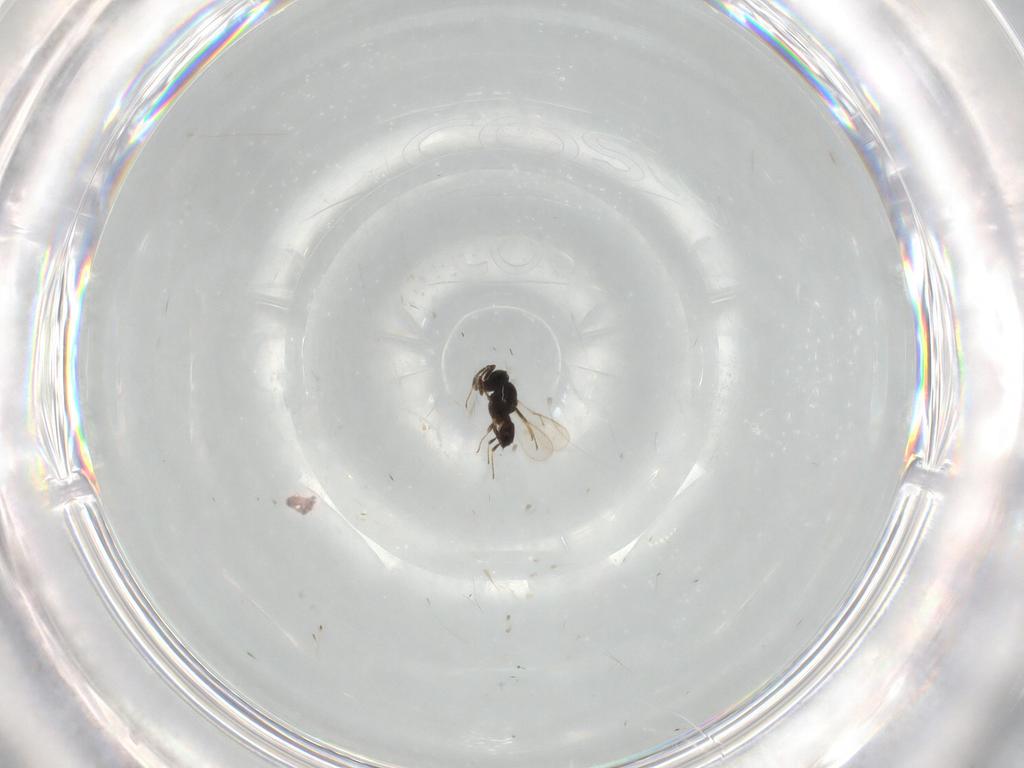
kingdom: Animalia
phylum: Arthropoda
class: Insecta
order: Hymenoptera
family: Scelionidae
